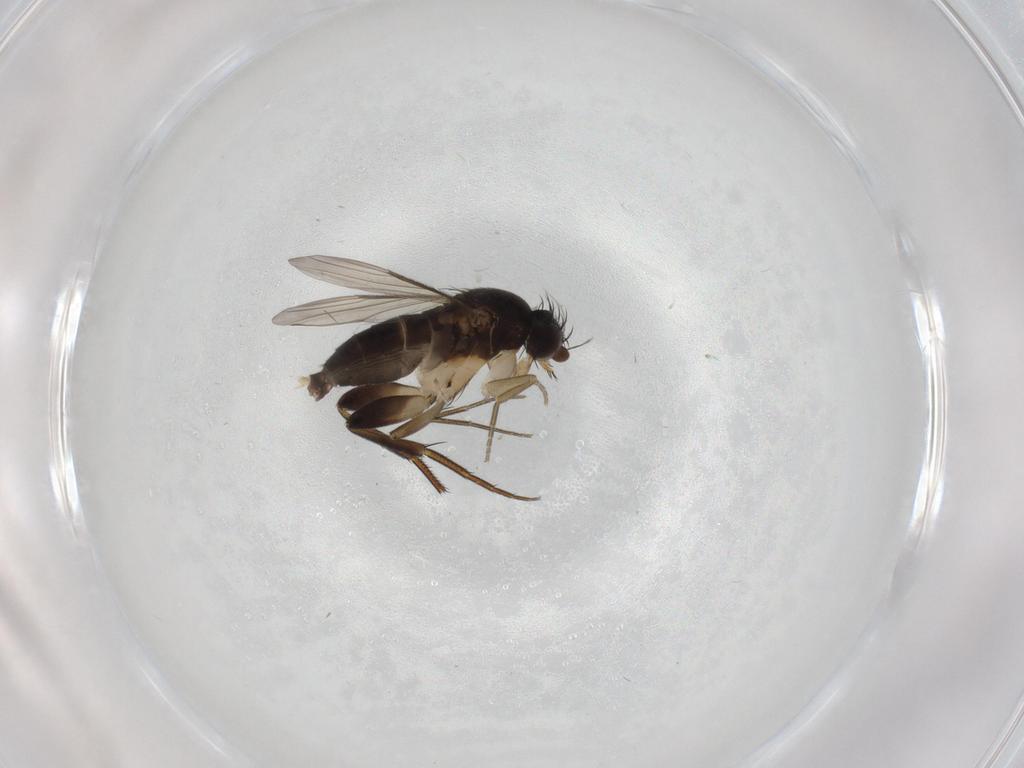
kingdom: Animalia
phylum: Arthropoda
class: Insecta
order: Diptera
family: Phoridae
